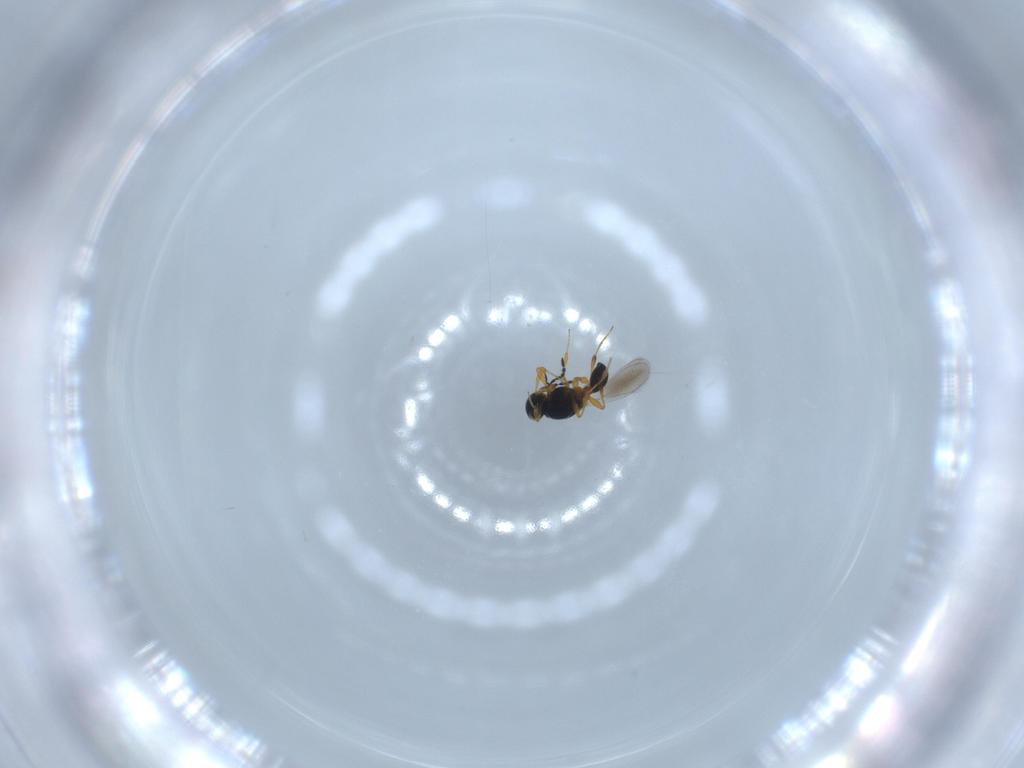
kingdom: Animalia
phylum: Arthropoda
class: Insecta
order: Hymenoptera
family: Platygastridae
